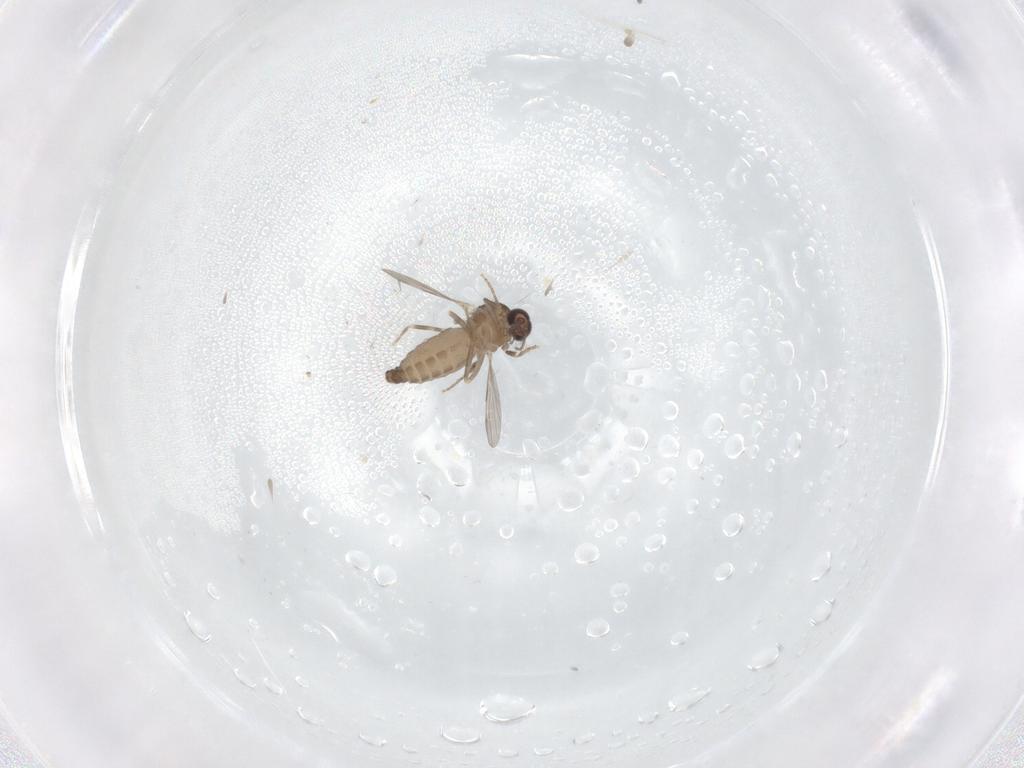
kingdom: Animalia
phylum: Arthropoda
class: Insecta
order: Diptera
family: Ceratopogonidae
